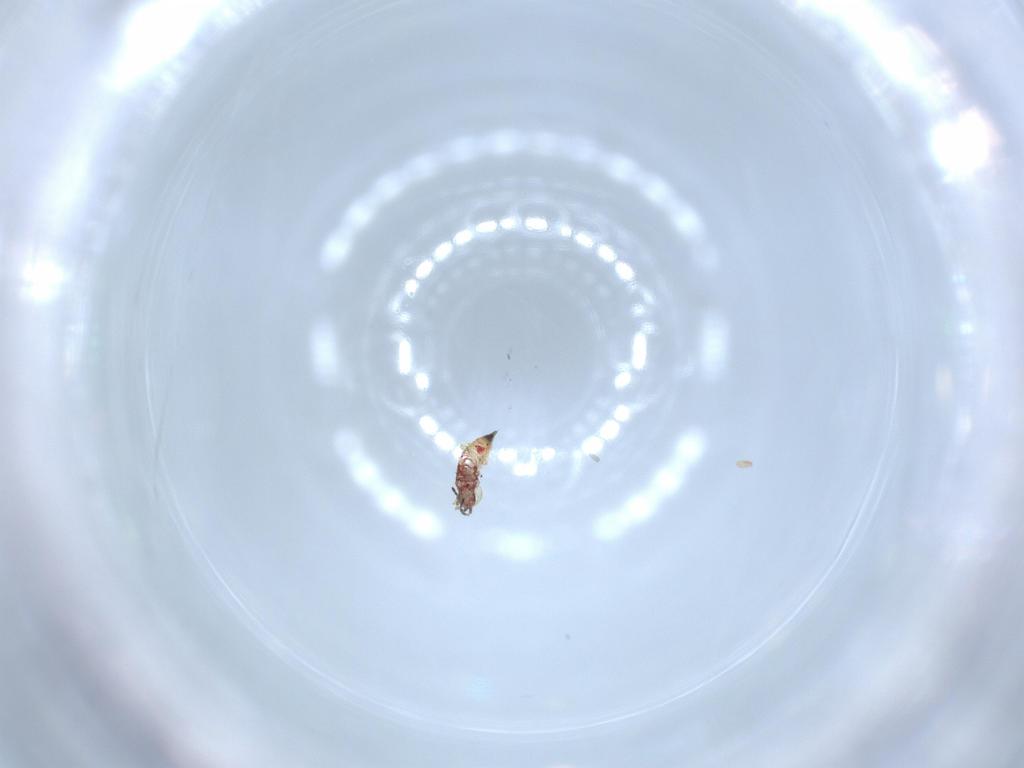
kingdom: Animalia
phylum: Arthropoda
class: Insecta
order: Thysanoptera
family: Phlaeothripidae
